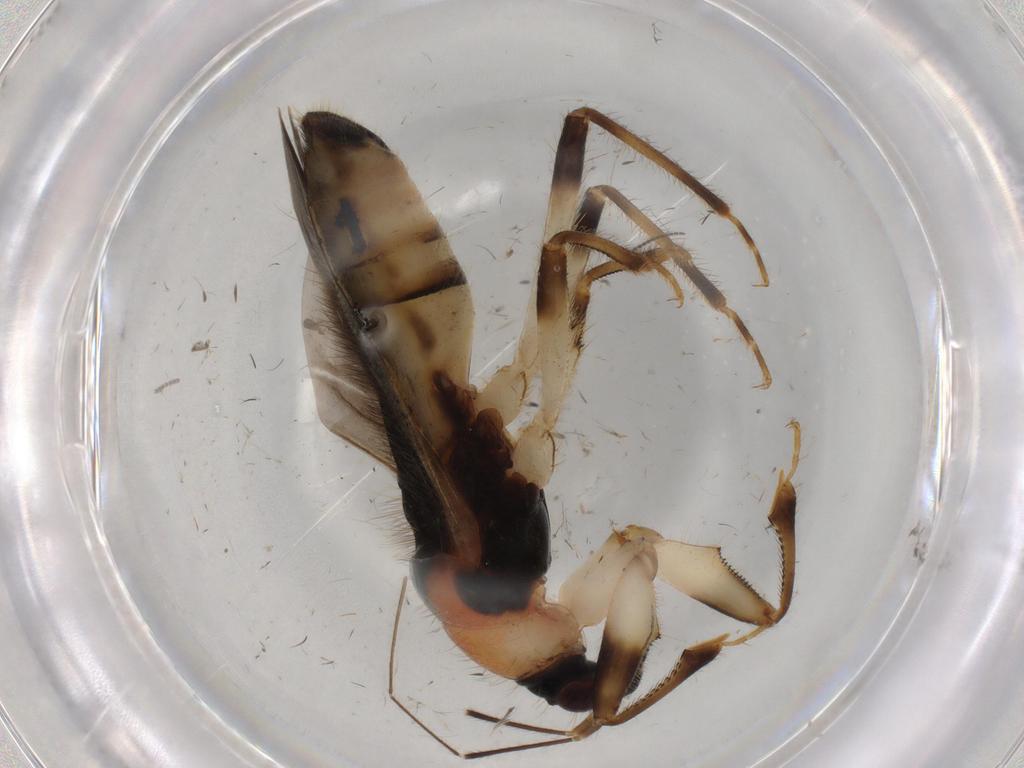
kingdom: Animalia
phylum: Arthropoda
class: Insecta
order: Hemiptera
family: Nabidae
